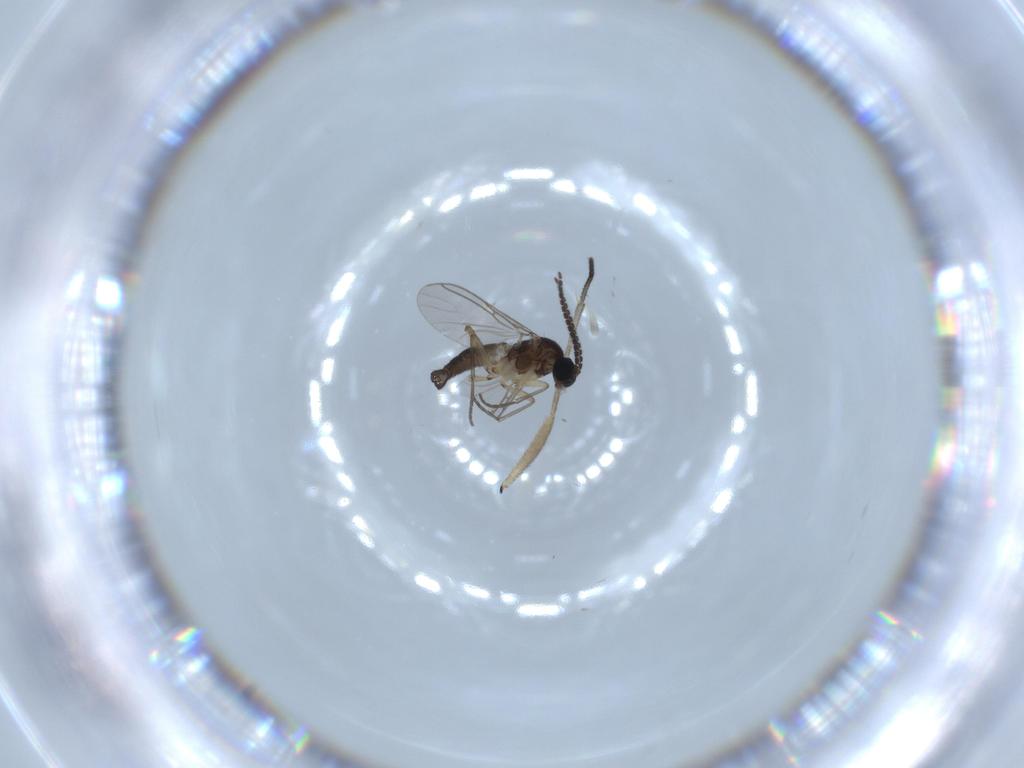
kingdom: Animalia
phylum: Arthropoda
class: Insecta
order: Diptera
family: Sciaridae
